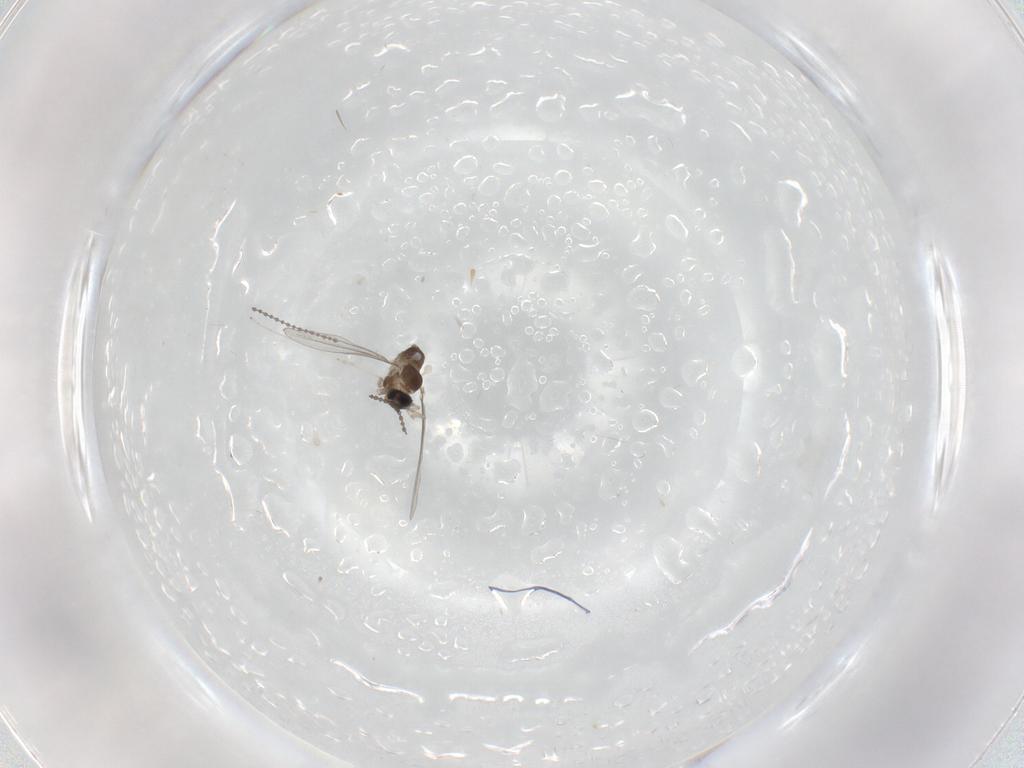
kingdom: Animalia
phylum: Arthropoda
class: Insecta
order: Diptera
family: Cecidomyiidae
